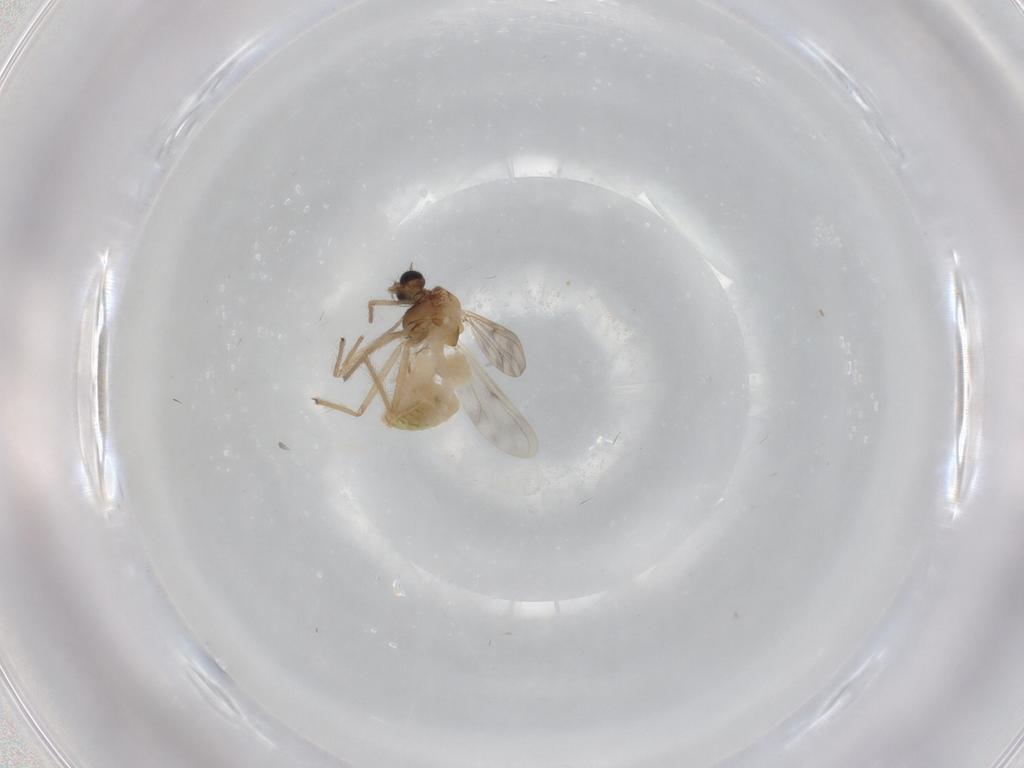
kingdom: Animalia
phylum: Arthropoda
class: Insecta
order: Diptera
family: Chironomidae
